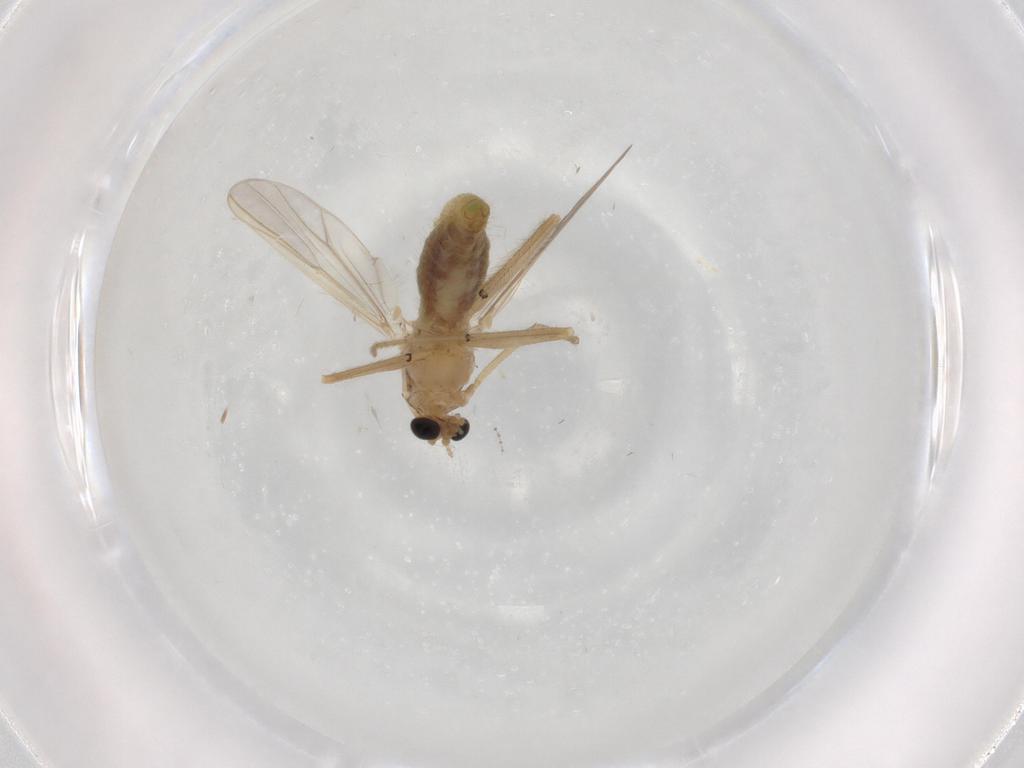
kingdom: Animalia
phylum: Arthropoda
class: Insecta
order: Diptera
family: Chironomidae
